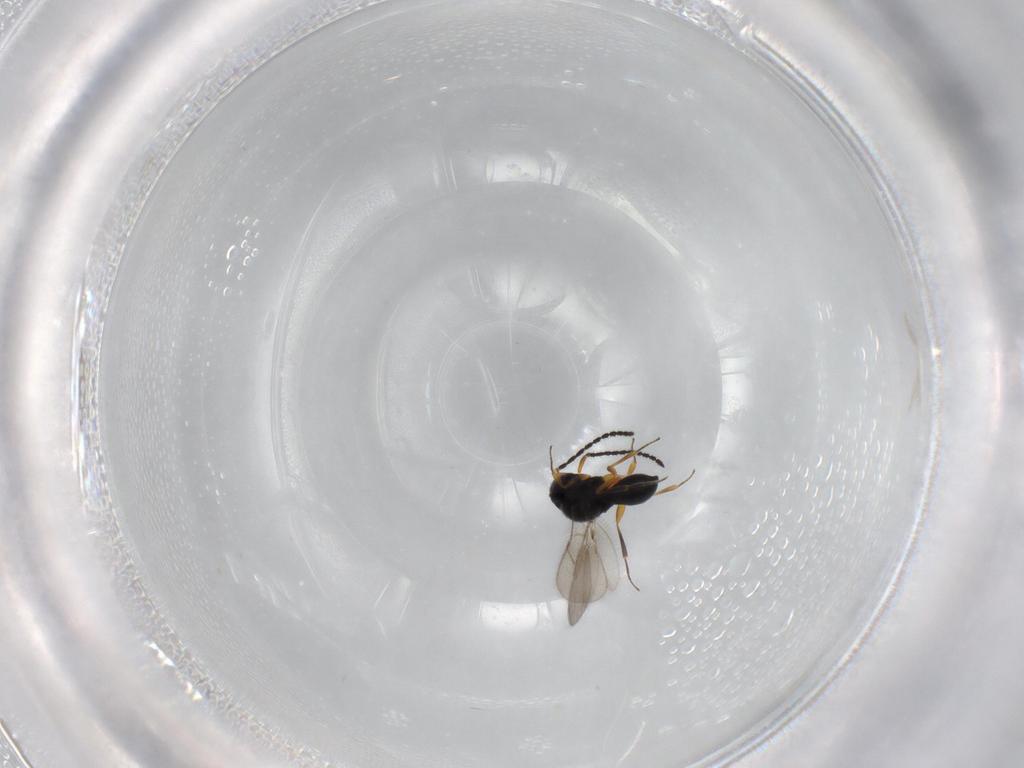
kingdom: Animalia
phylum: Arthropoda
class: Insecta
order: Hymenoptera
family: Scelionidae
